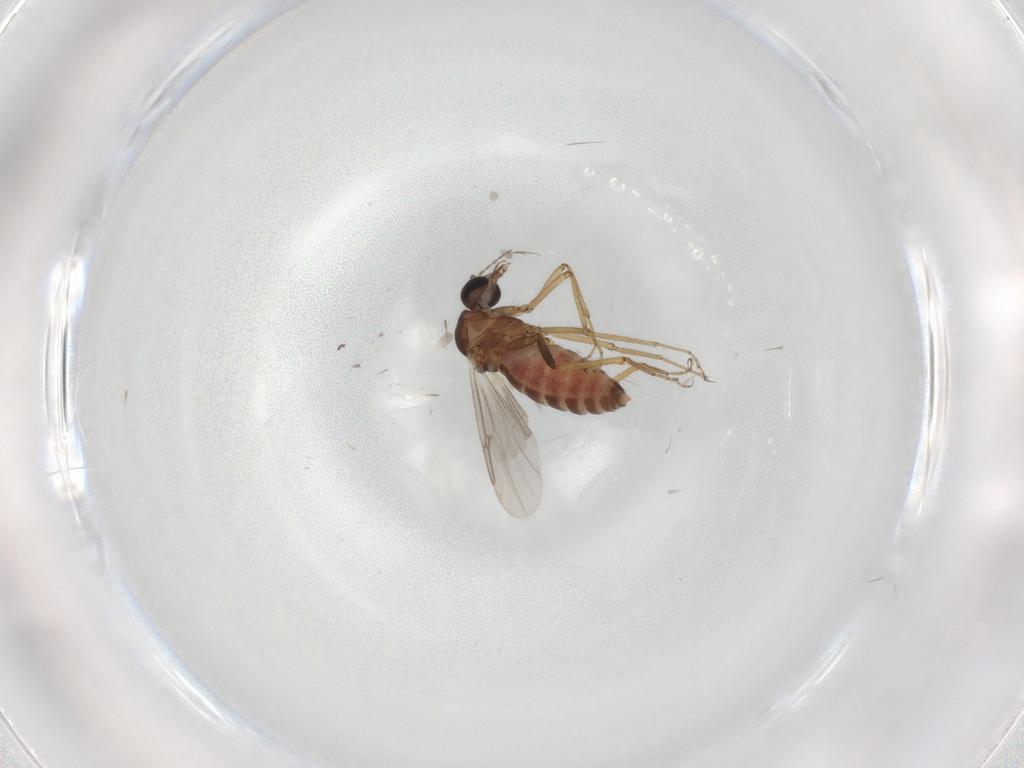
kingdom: Animalia
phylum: Arthropoda
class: Insecta
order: Diptera
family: Ceratopogonidae
